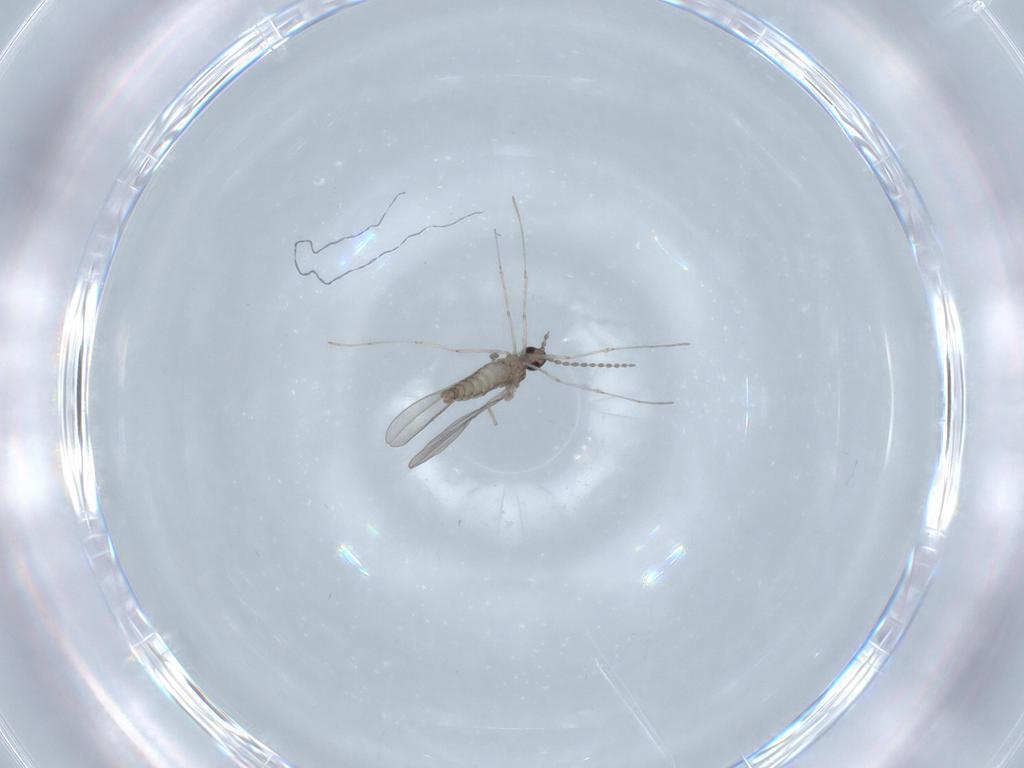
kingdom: Animalia
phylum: Arthropoda
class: Insecta
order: Diptera
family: Cecidomyiidae
